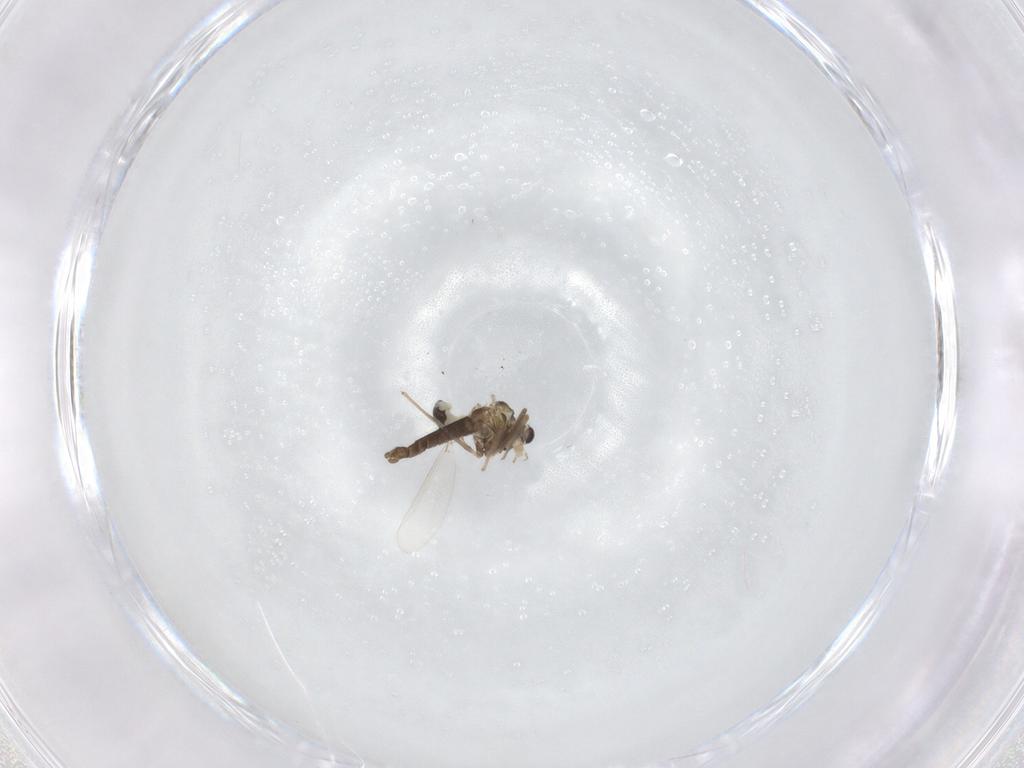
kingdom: Animalia
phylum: Arthropoda
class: Insecta
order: Diptera
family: Chironomidae
